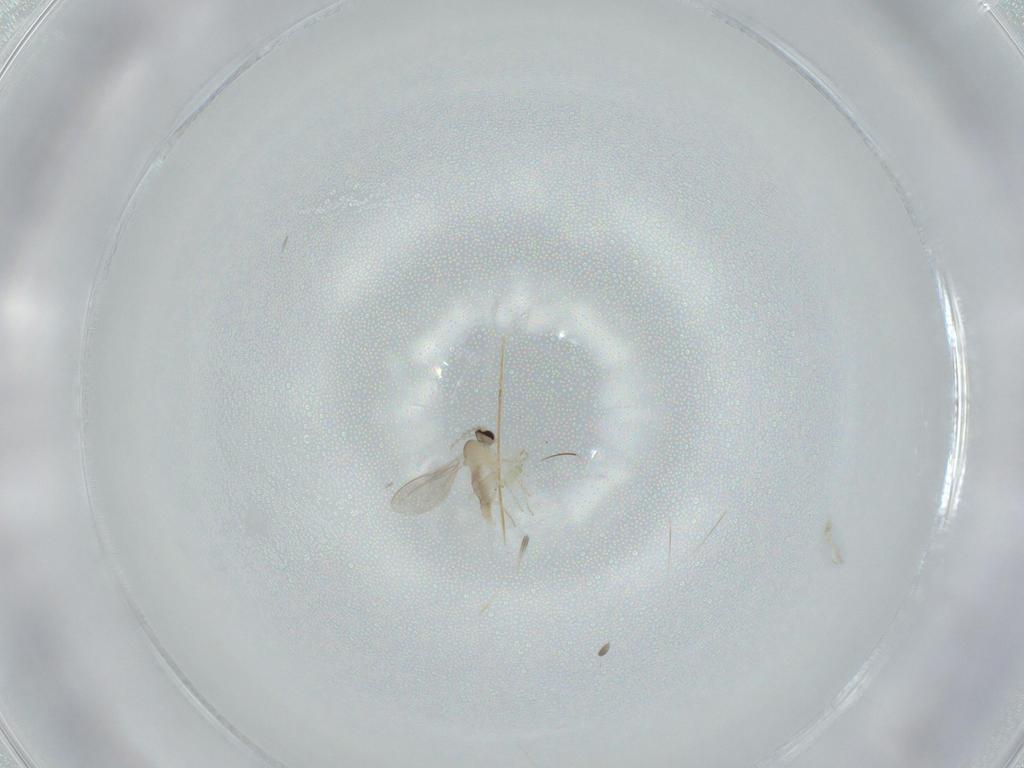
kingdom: Animalia
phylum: Arthropoda
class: Insecta
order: Diptera
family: Cecidomyiidae
